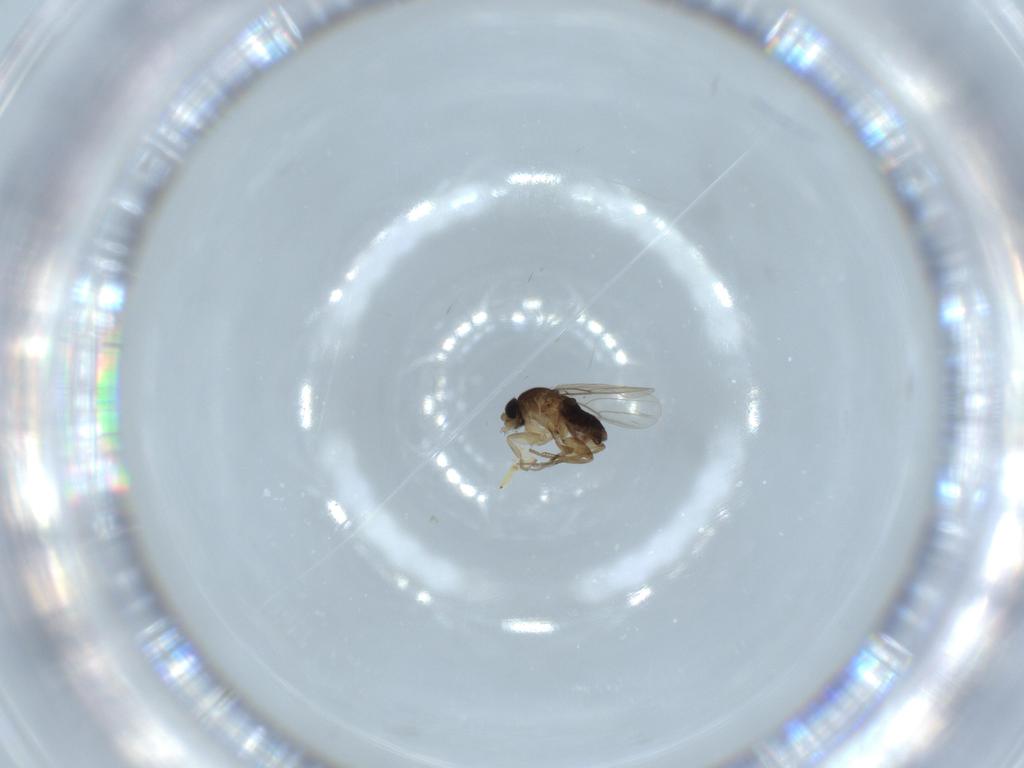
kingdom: Animalia
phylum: Arthropoda
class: Insecta
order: Diptera
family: Phoridae
